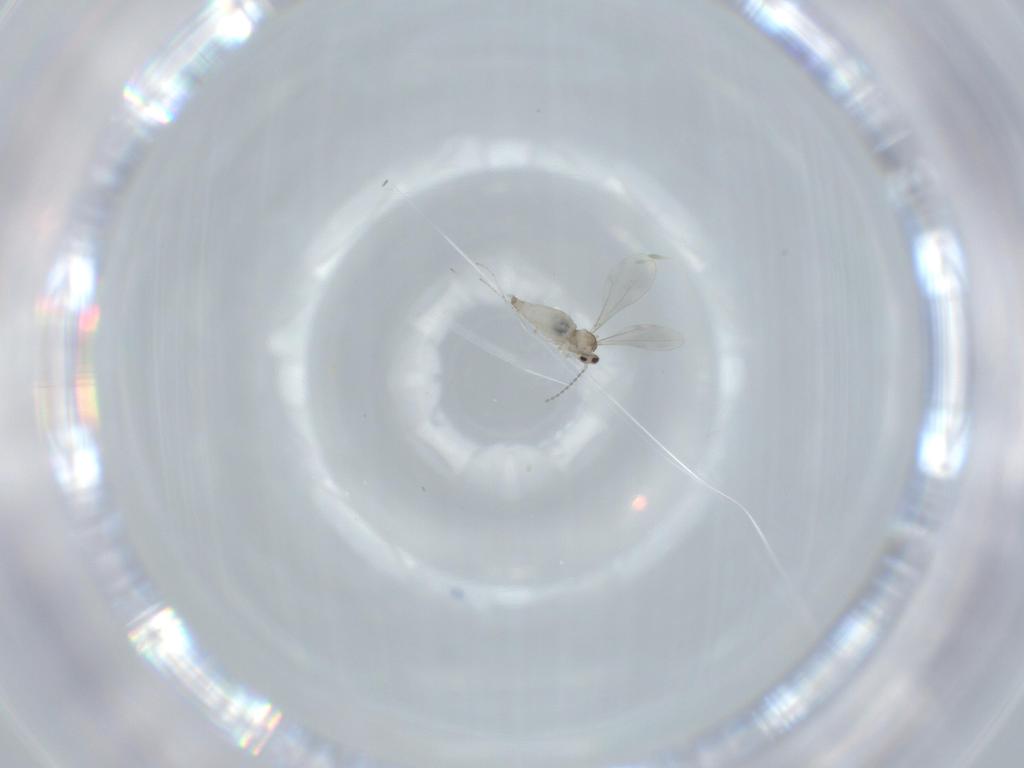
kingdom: Animalia
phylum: Arthropoda
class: Insecta
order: Diptera
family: Cecidomyiidae
